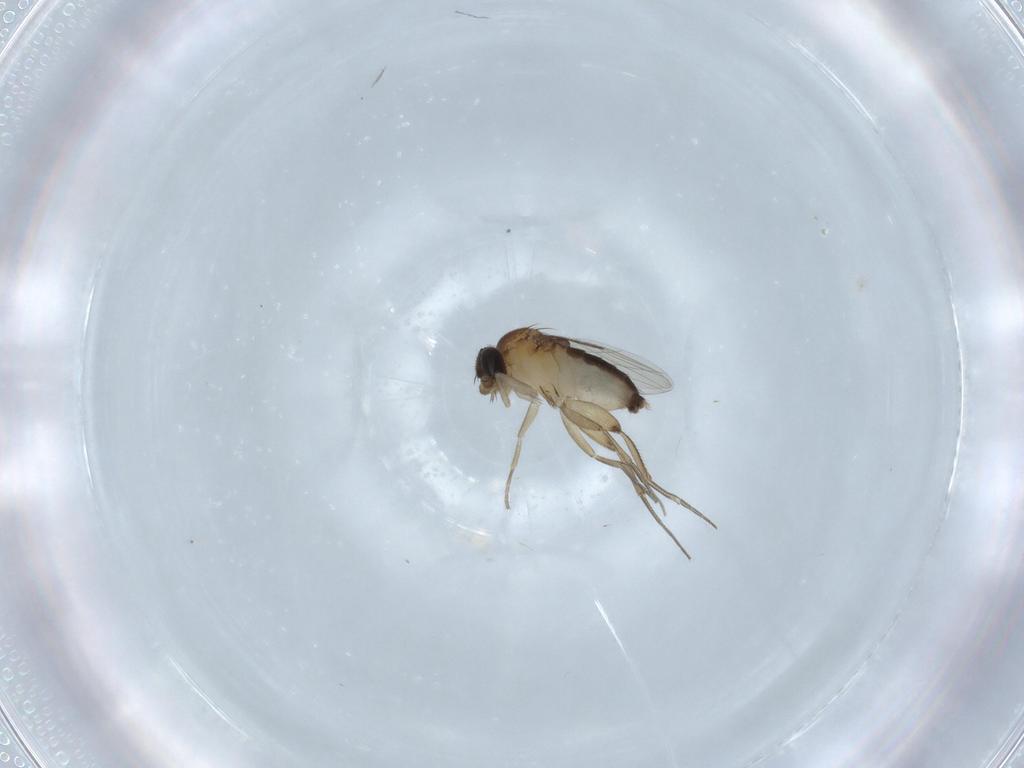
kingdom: Animalia
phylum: Arthropoda
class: Insecta
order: Diptera
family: Phoridae
